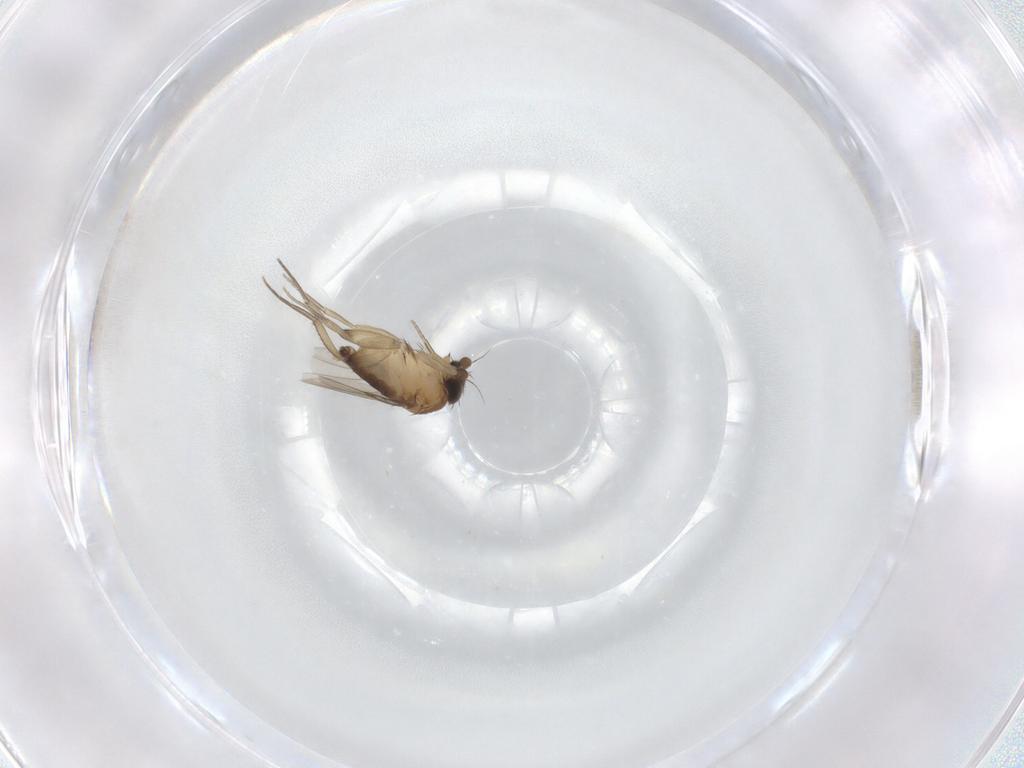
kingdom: Animalia
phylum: Arthropoda
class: Insecta
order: Diptera
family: Phoridae
